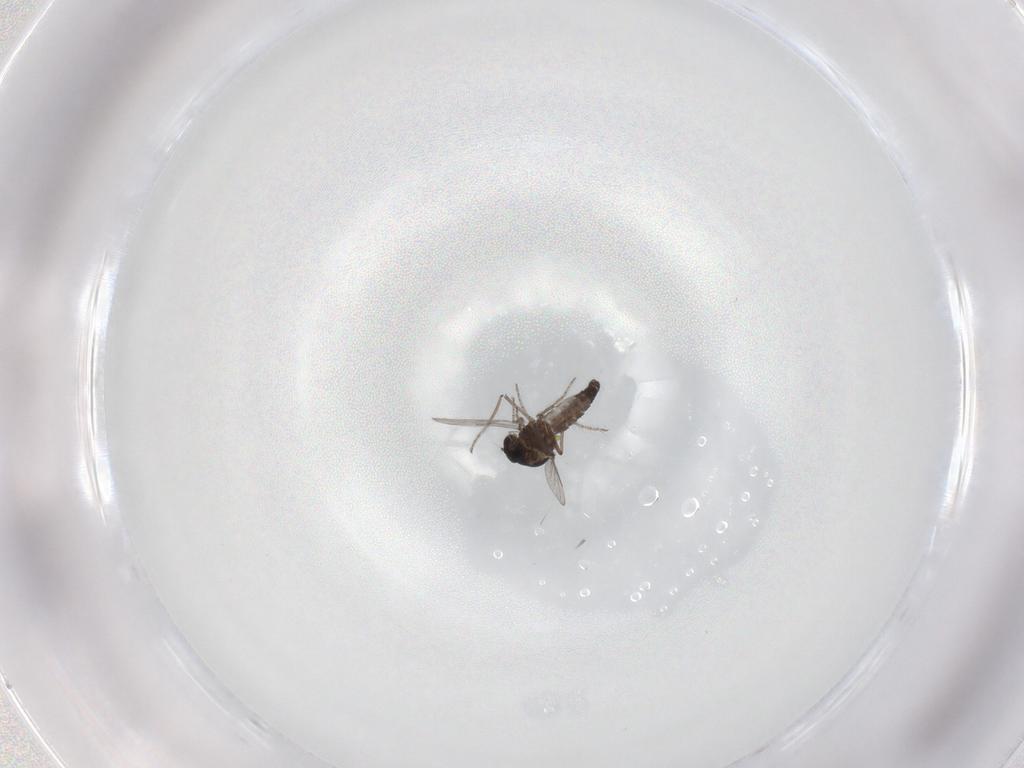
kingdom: Animalia
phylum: Arthropoda
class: Insecta
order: Diptera
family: Ceratopogonidae
